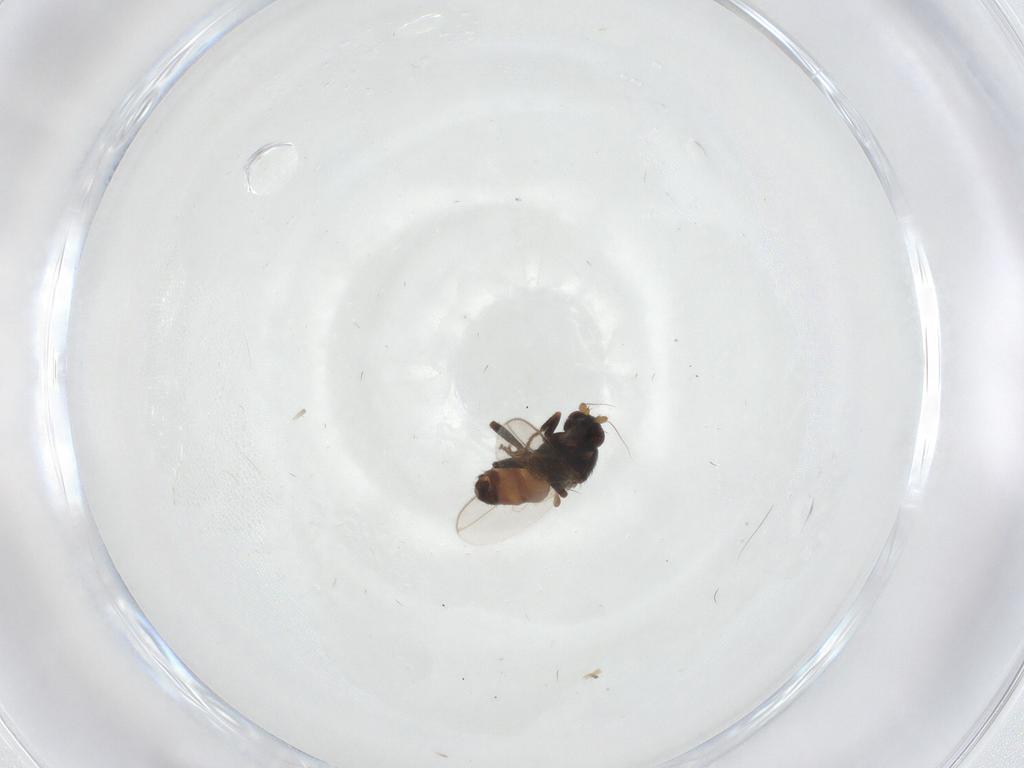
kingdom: Animalia
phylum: Arthropoda
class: Insecta
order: Diptera
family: Sphaeroceridae
